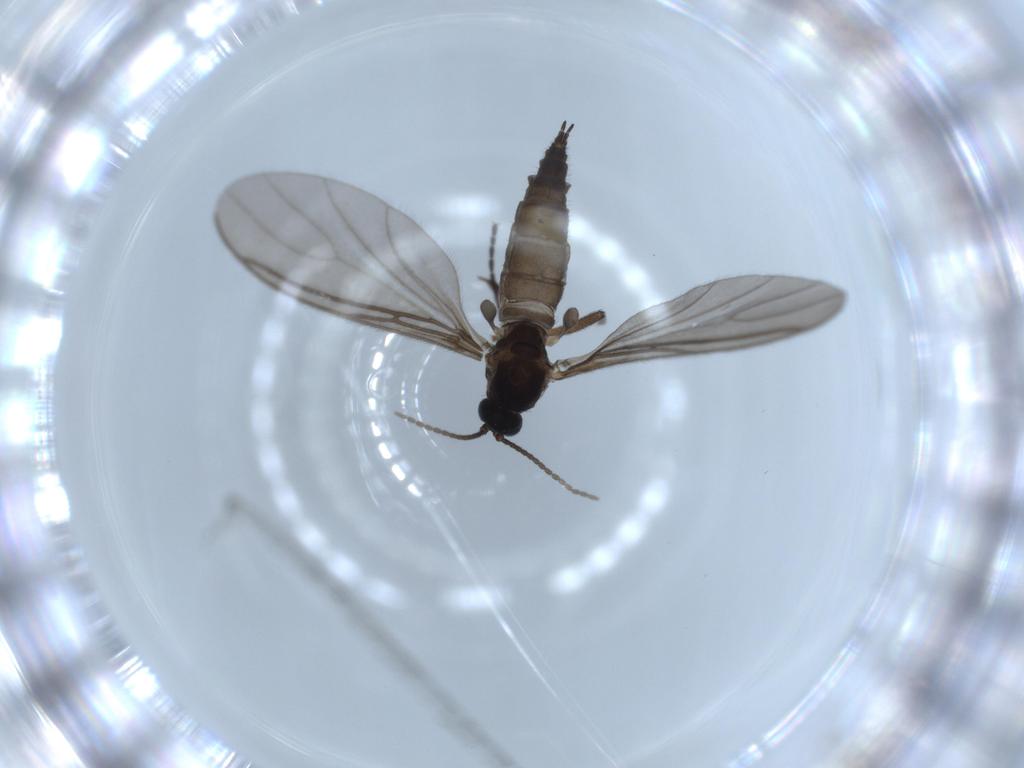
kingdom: Animalia
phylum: Arthropoda
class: Insecta
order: Diptera
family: Sciaridae
